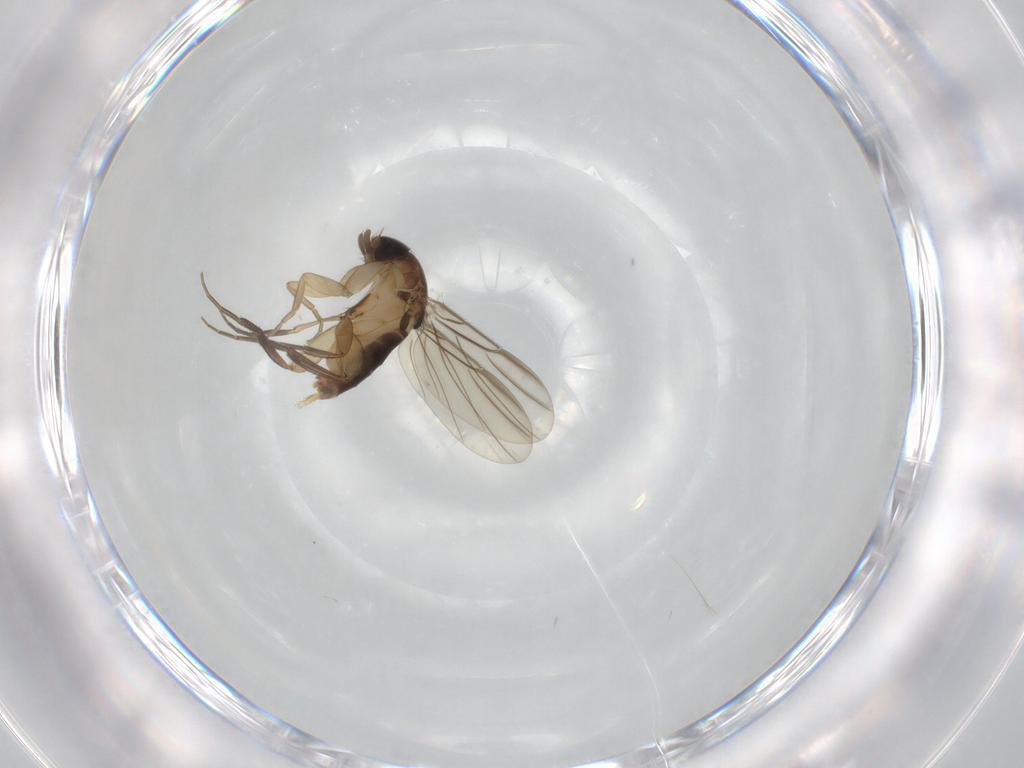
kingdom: Animalia
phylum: Arthropoda
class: Insecta
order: Diptera
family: Phoridae
